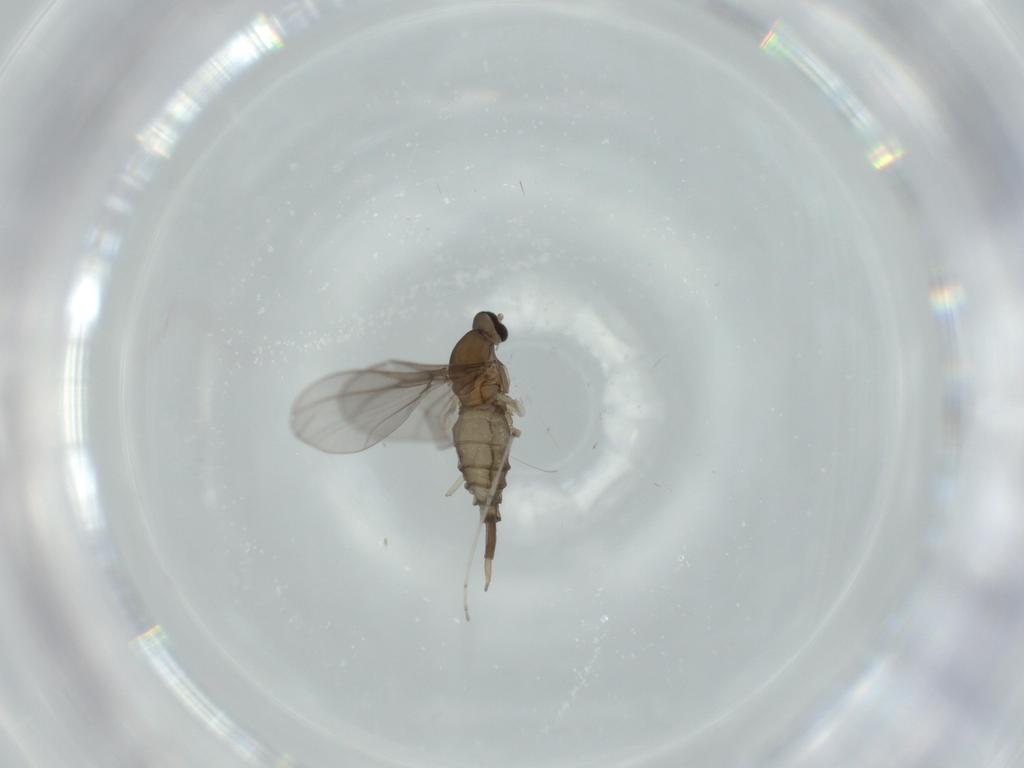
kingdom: Animalia
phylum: Arthropoda
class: Insecta
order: Diptera
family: Cecidomyiidae
